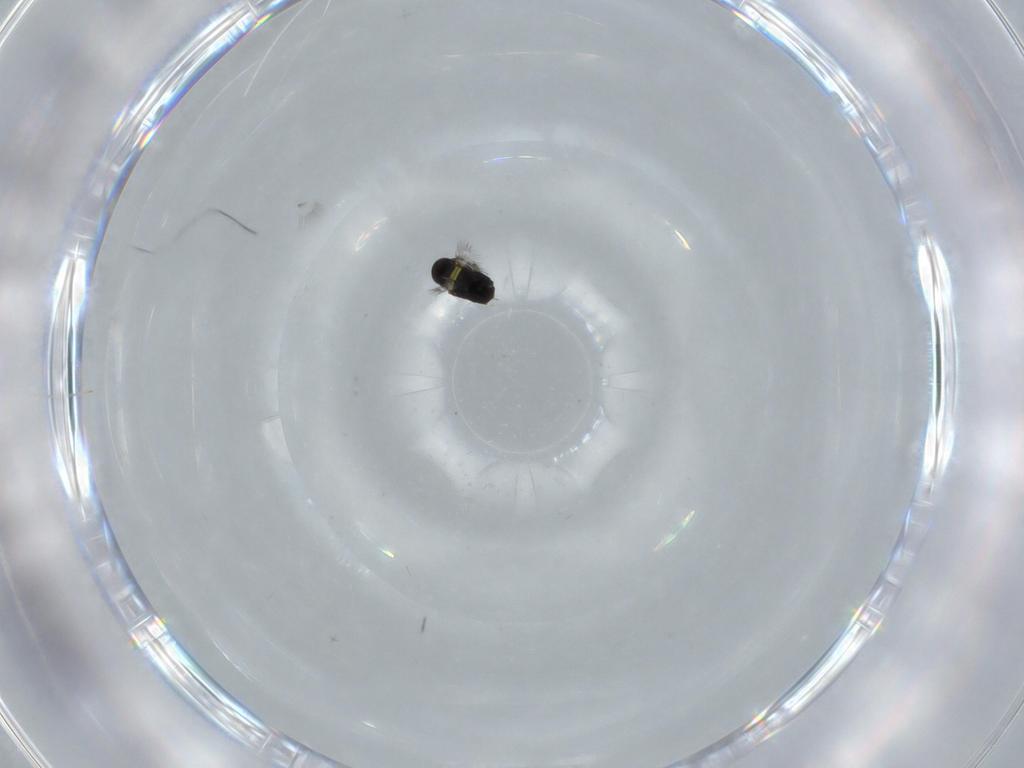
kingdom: Animalia
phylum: Arthropoda
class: Insecta
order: Hymenoptera
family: Signiphoridae
